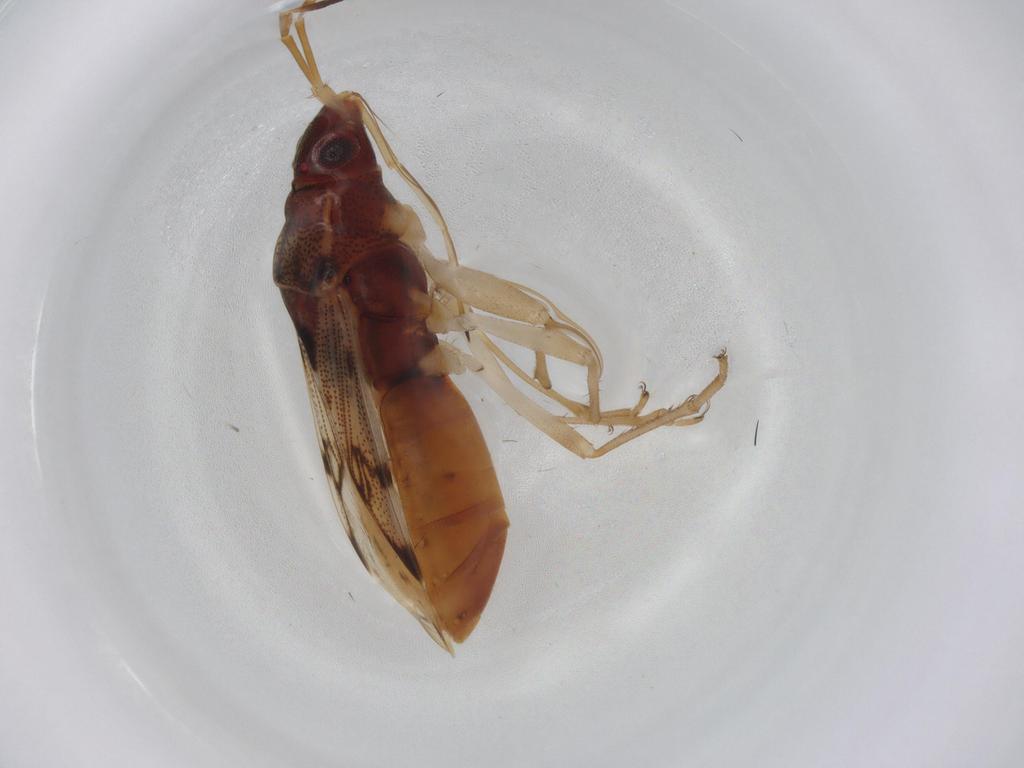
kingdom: Animalia
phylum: Arthropoda
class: Insecta
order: Hemiptera
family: Rhyparochromidae
